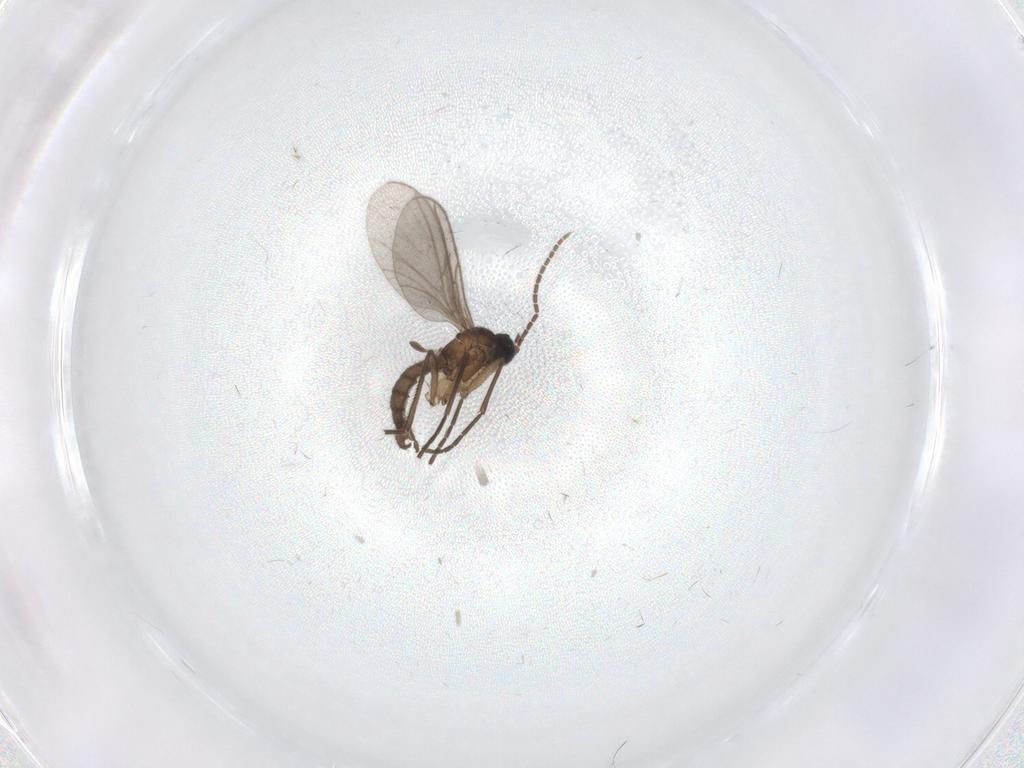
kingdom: Animalia
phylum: Arthropoda
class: Insecta
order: Diptera
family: Sciaridae
